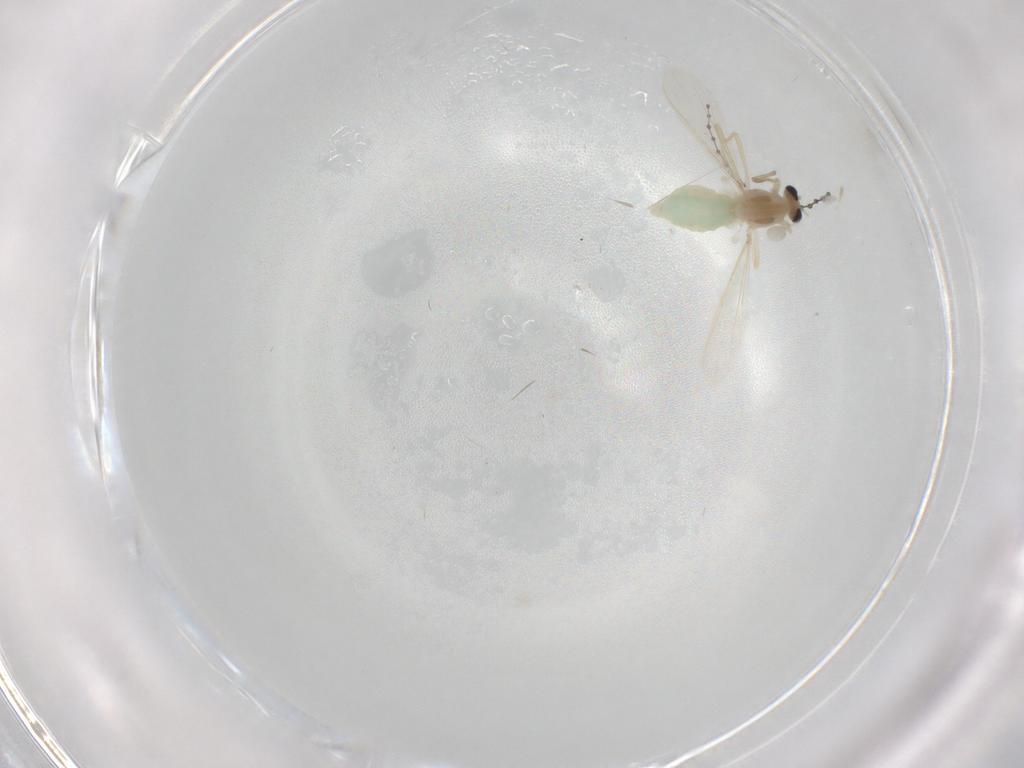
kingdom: Animalia
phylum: Arthropoda
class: Insecta
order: Diptera
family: Chironomidae
